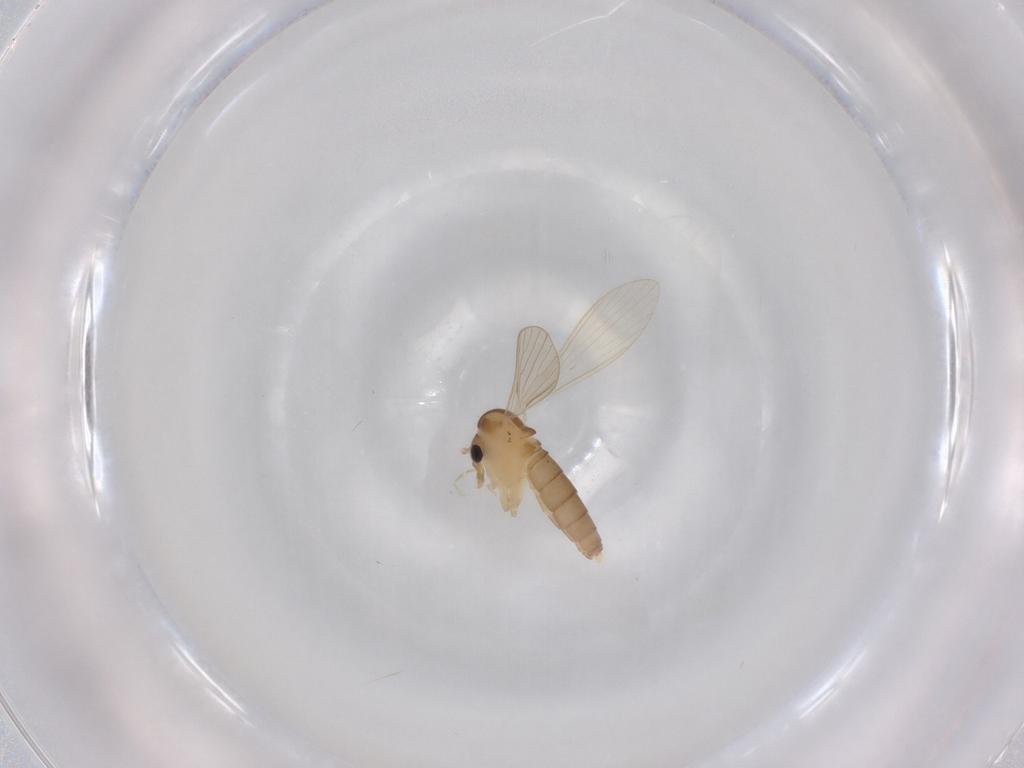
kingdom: Animalia
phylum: Arthropoda
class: Insecta
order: Diptera
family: Psychodidae
